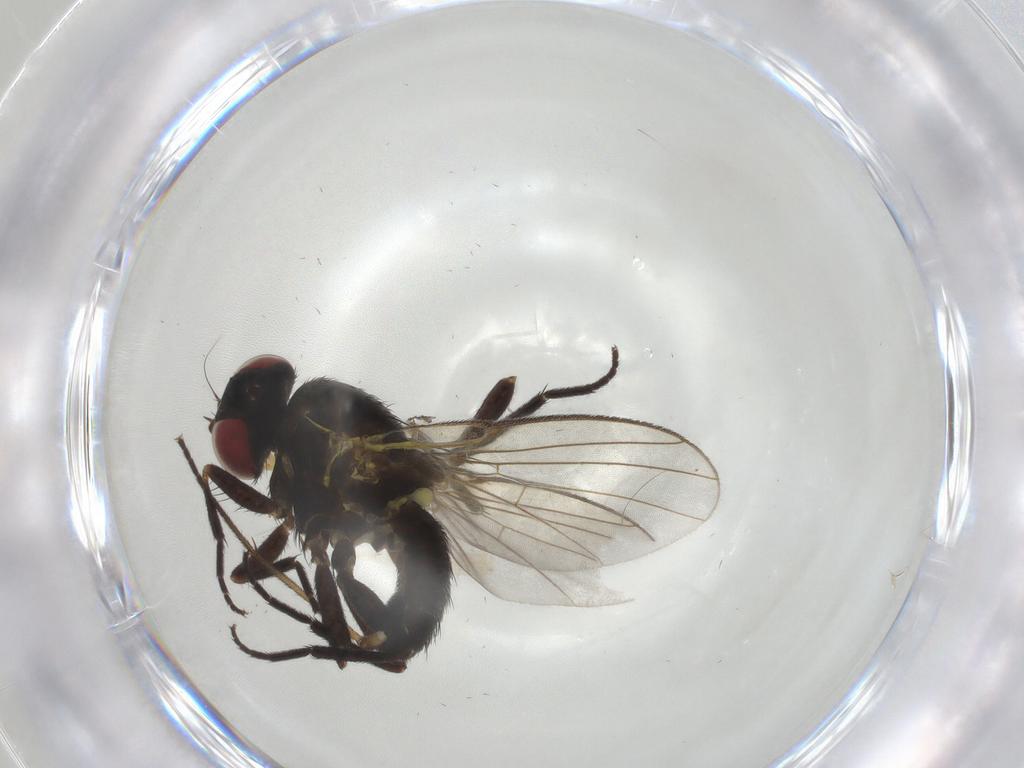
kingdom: Animalia
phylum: Arthropoda
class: Insecta
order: Diptera
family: Agromyzidae
